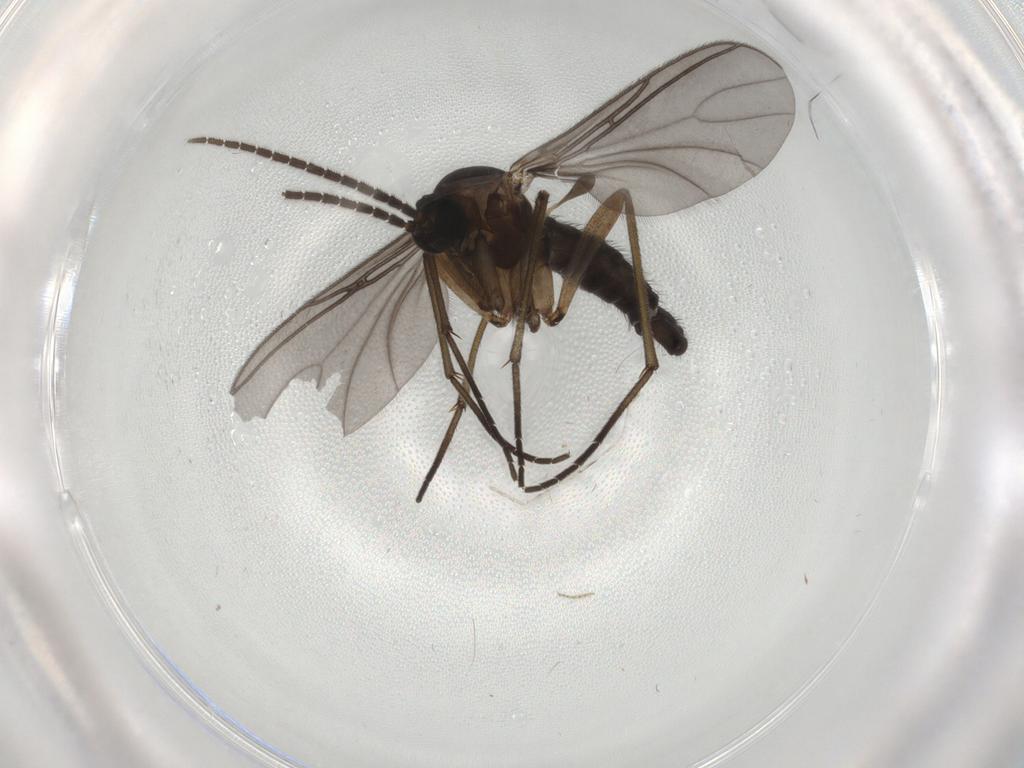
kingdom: Animalia
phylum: Arthropoda
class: Insecta
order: Diptera
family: Sciaridae
